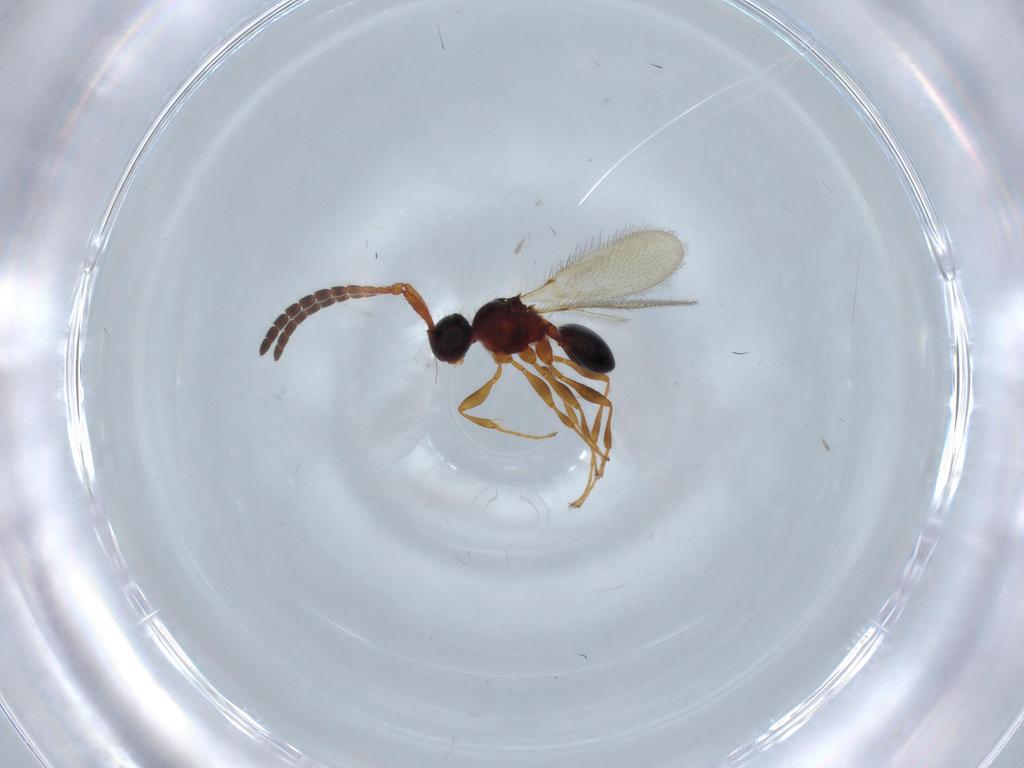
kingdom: Animalia
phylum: Arthropoda
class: Insecta
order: Hymenoptera
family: Diapriidae
